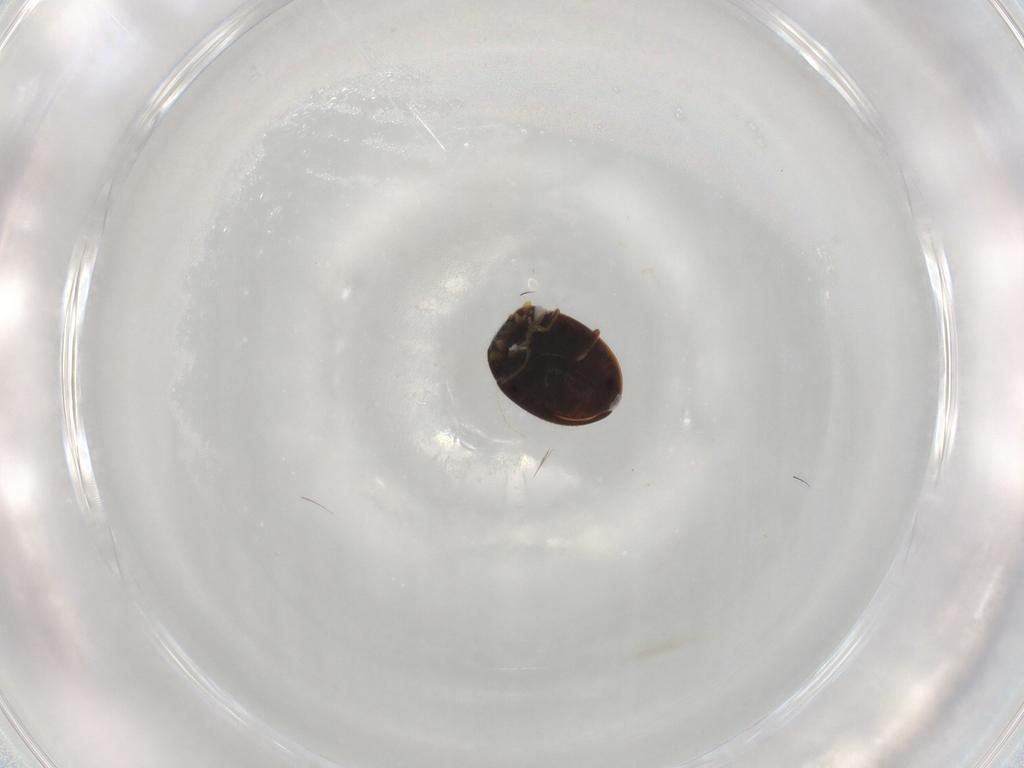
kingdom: Animalia
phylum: Arthropoda
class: Insecta
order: Coleoptera
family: Coccinellidae
